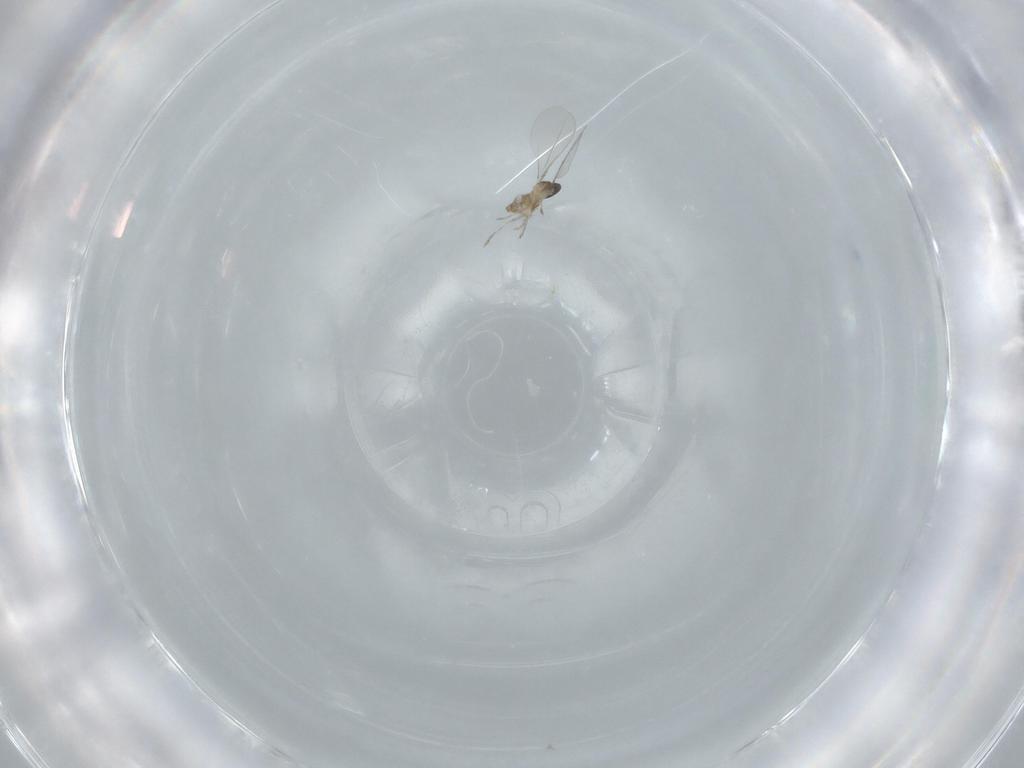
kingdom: Animalia
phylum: Arthropoda
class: Insecta
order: Diptera
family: Cecidomyiidae
